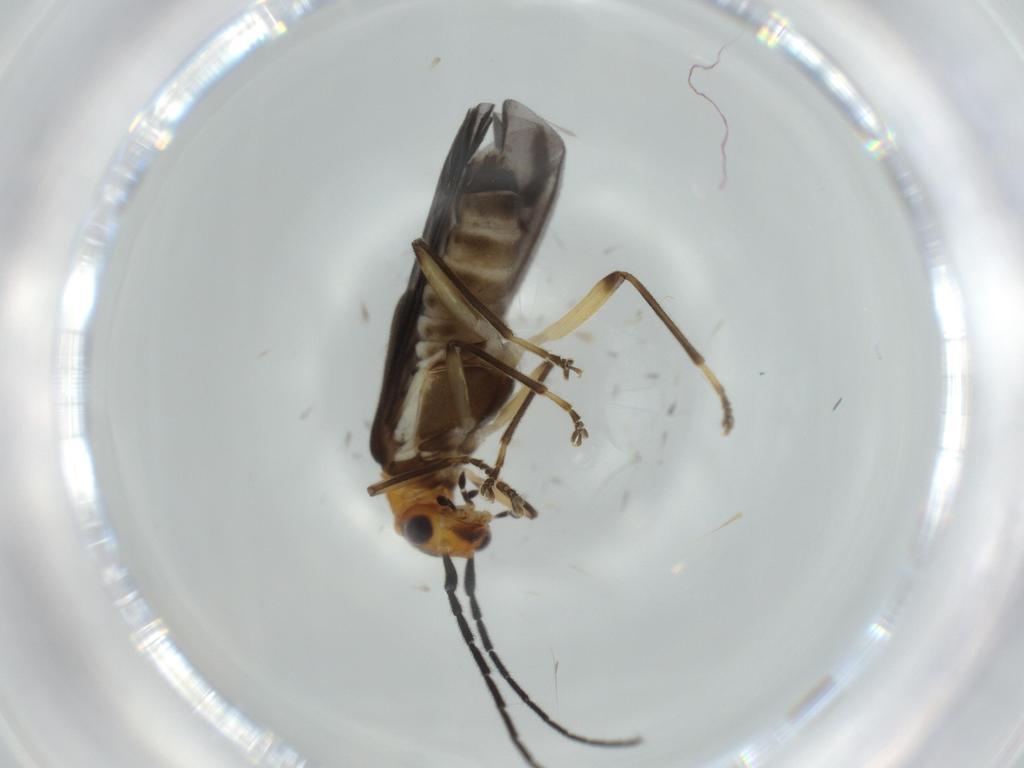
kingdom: Animalia
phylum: Arthropoda
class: Insecta
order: Coleoptera
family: Cantharidae
